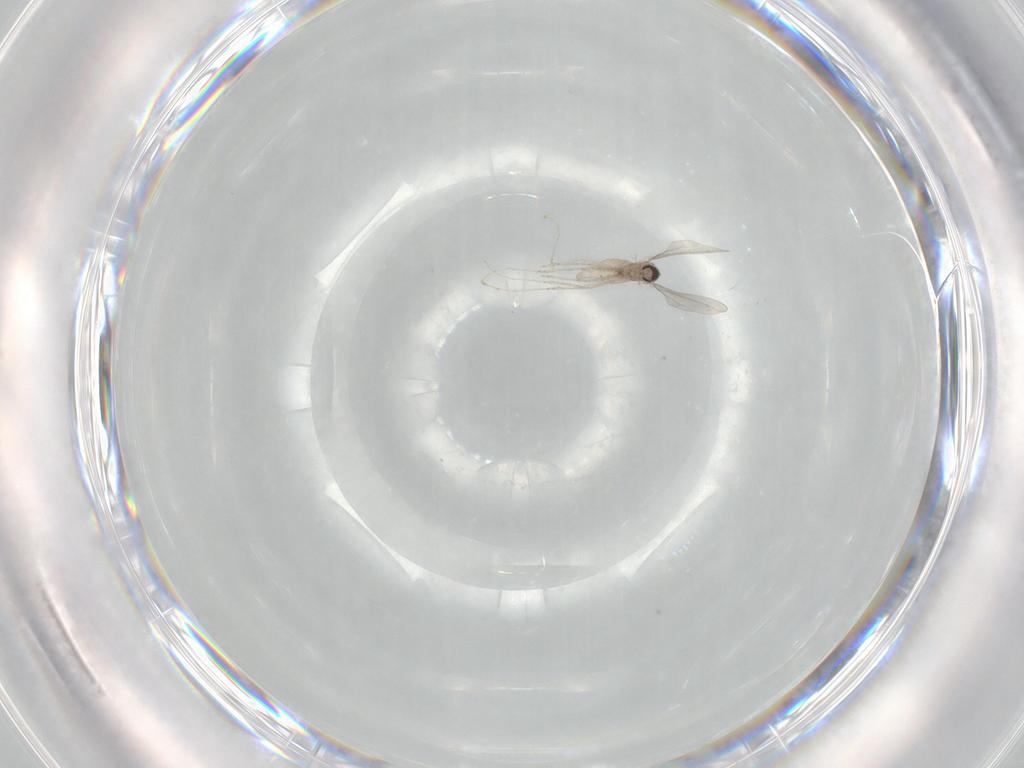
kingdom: Animalia
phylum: Arthropoda
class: Insecta
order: Diptera
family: Cecidomyiidae
